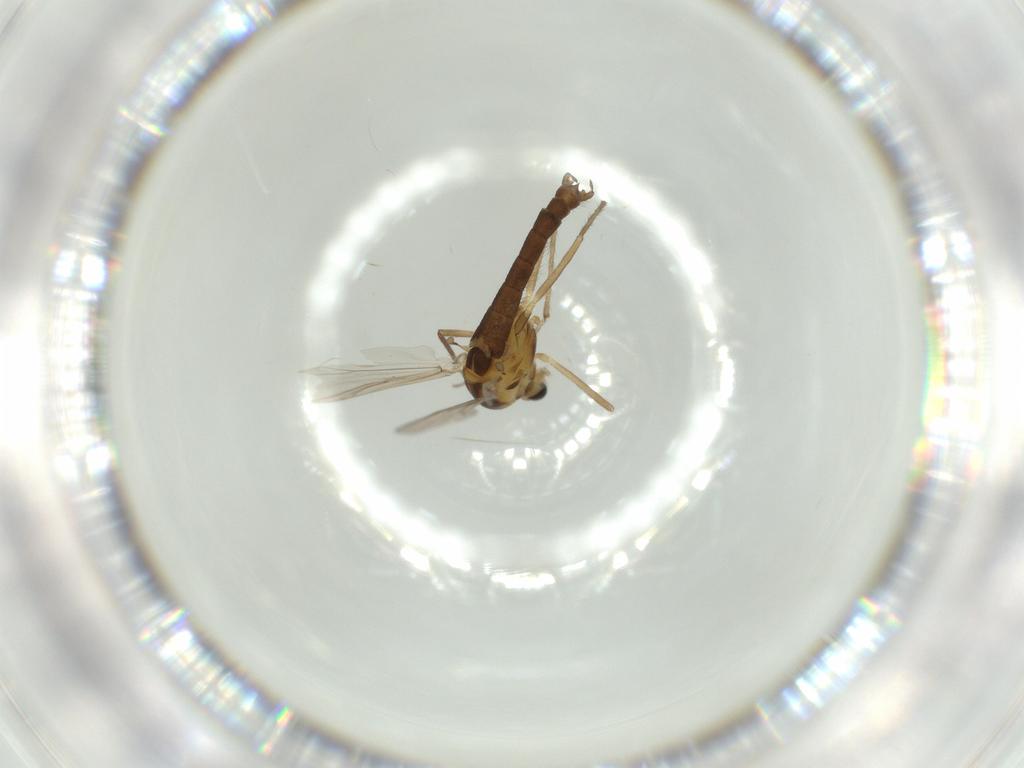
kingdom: Animalia
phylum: Arthropoda
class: Insecta
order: Diptera
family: Chironomidae
